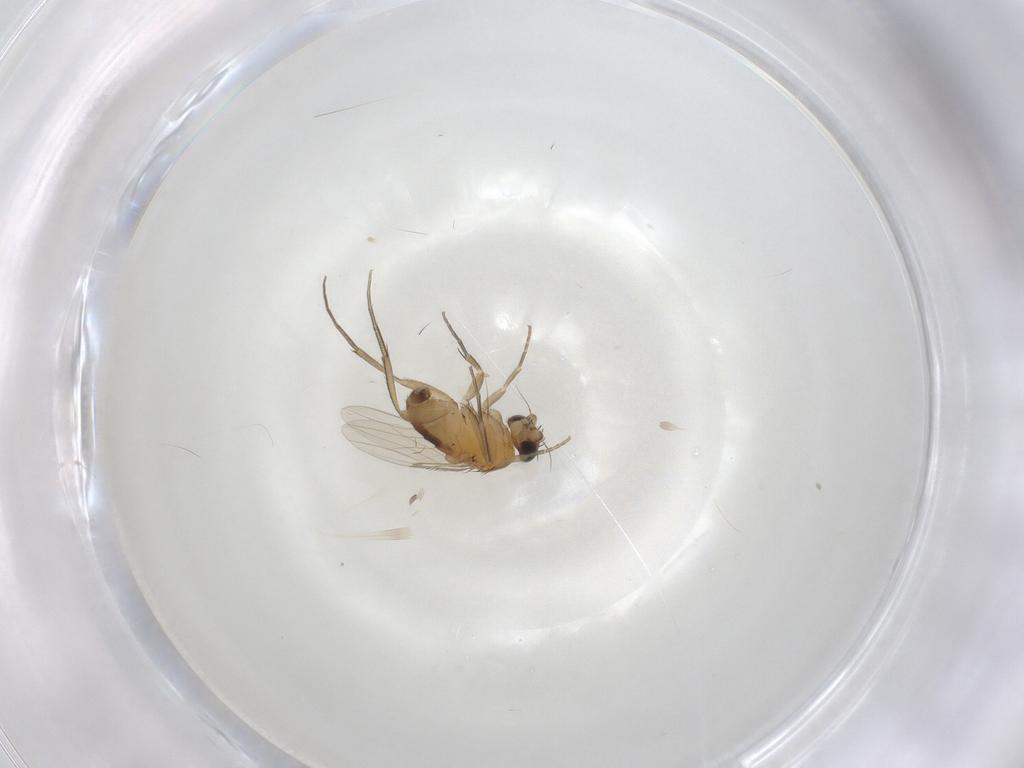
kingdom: Animalia
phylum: Arthropoda
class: Insecta
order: Diptera
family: Phoridae
